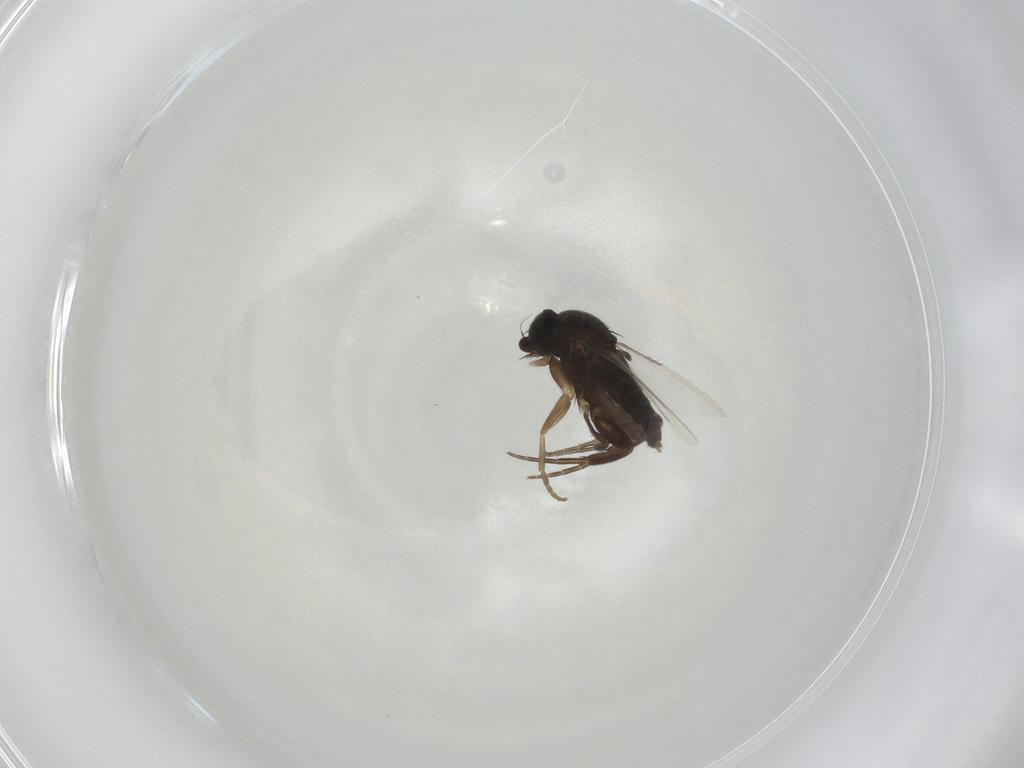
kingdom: Animalia
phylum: Arthropoda
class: Insecta
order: Diptera
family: Phoridae
